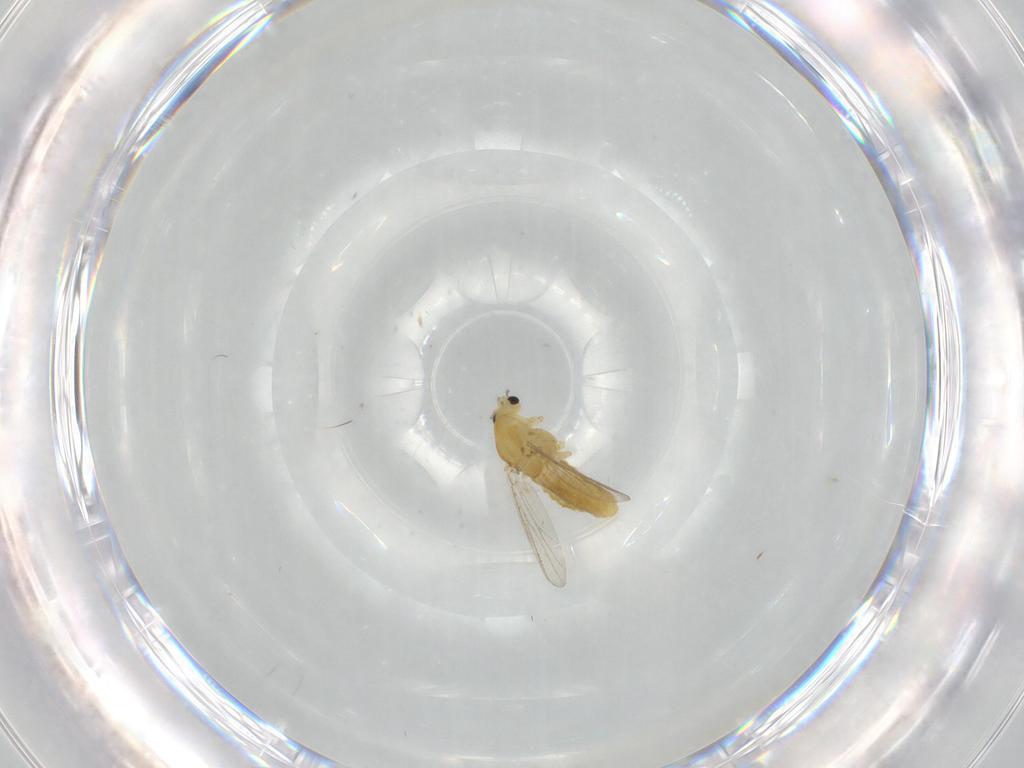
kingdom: Animalia
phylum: Arthropoda
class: Insecta
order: Diptera
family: Chironomidae
